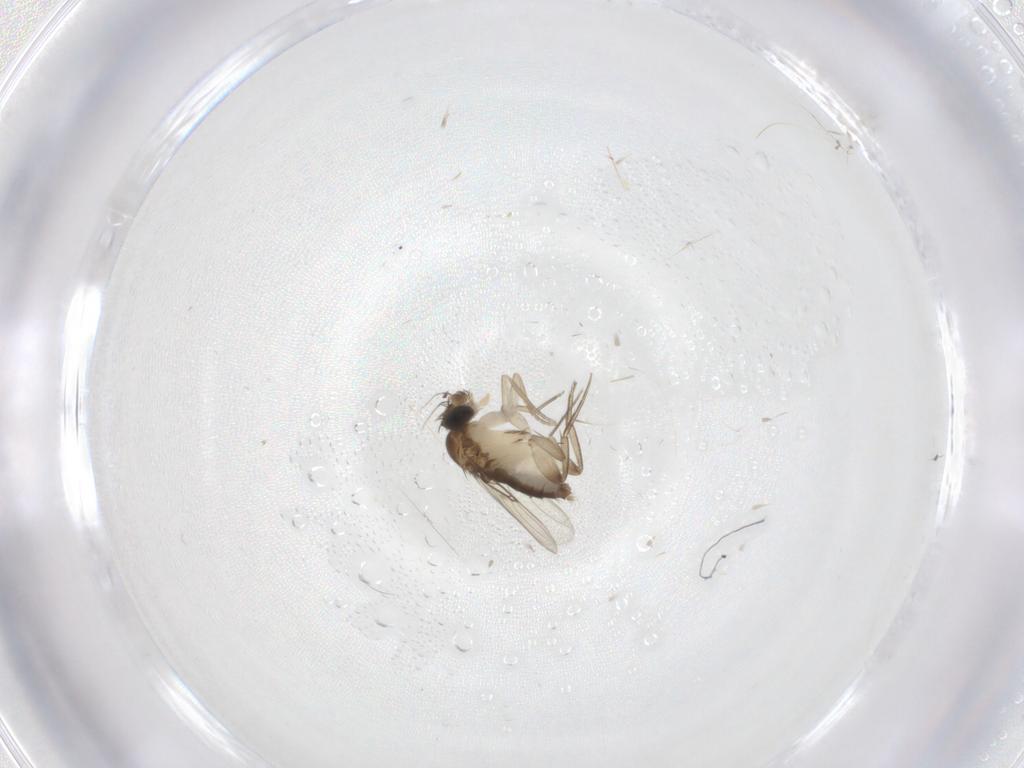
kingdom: Animalia
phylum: Arthropoda
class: Insecta
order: Diptera
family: Phoridae
